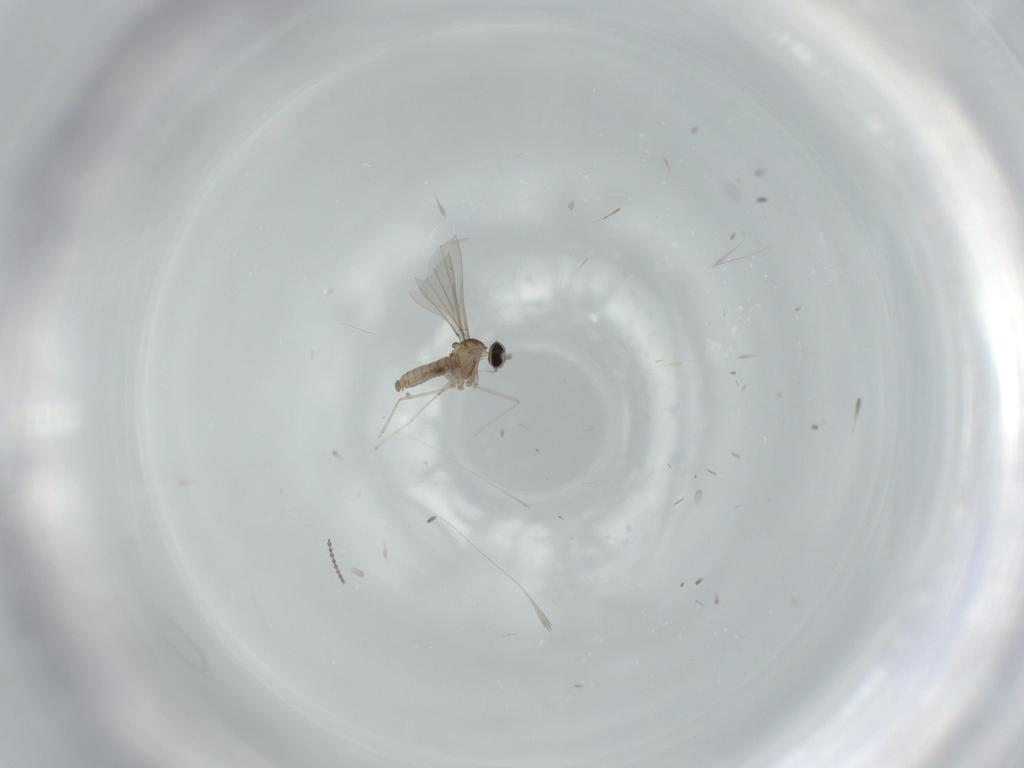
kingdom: Animalia
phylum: Arthropoda
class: Insecta
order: Diptera
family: Cecidomyiidae
